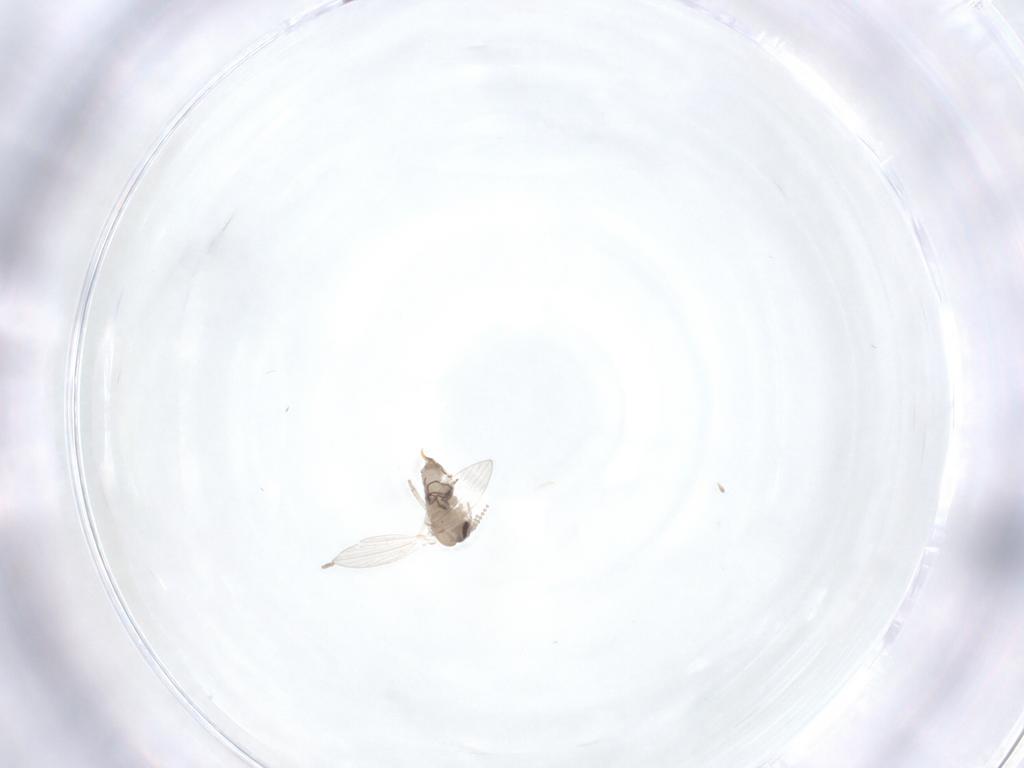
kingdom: Animalia
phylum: Arthropoda
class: Insecta
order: Diptera
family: Psychodidae
